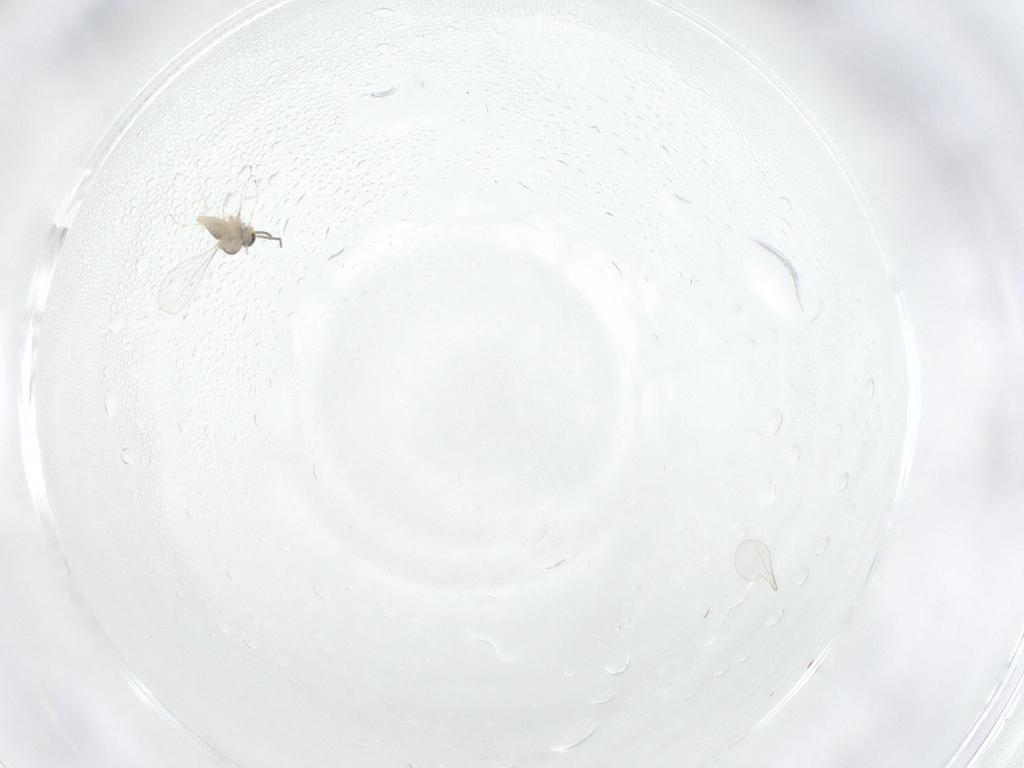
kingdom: Animalia
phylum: Arthropoda
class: Insecta
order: Diptera
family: Cecidomyiidae
